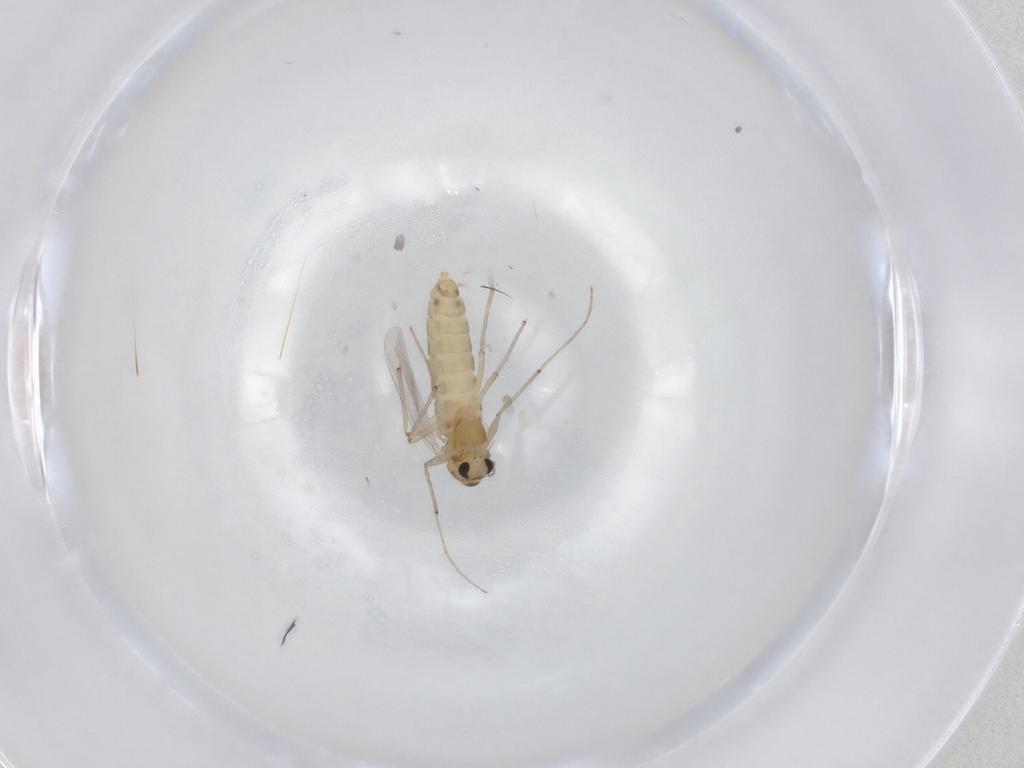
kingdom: Animalia
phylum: Arthropoda
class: Insecta
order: Diptera
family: Chironomidae
